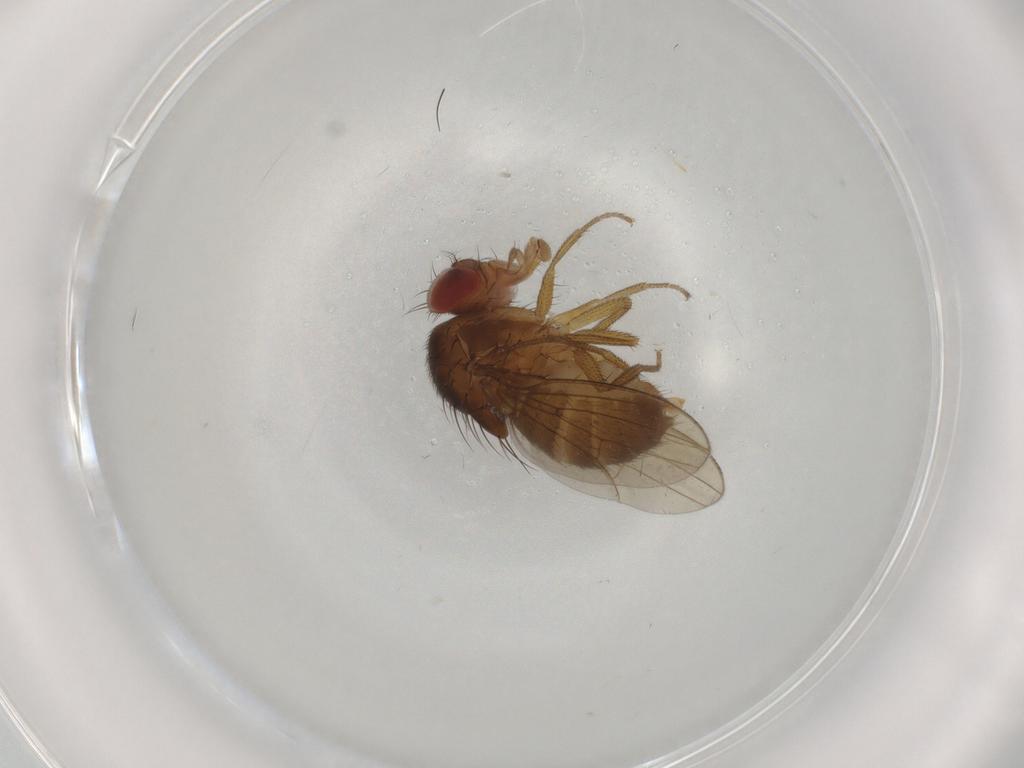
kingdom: Animalia
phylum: Arthropoda
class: Insecta
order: Diptera
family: Drosophilidae
